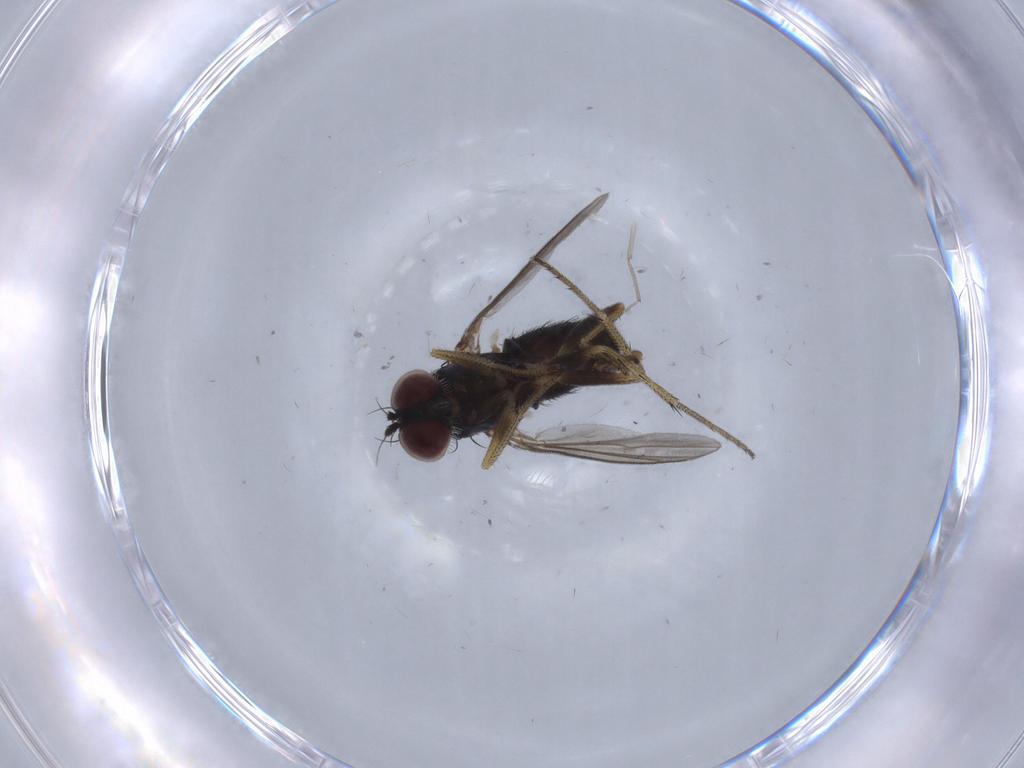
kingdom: Animalia
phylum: Arthropoda
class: Insecta
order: Diptera
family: Chironomidae
